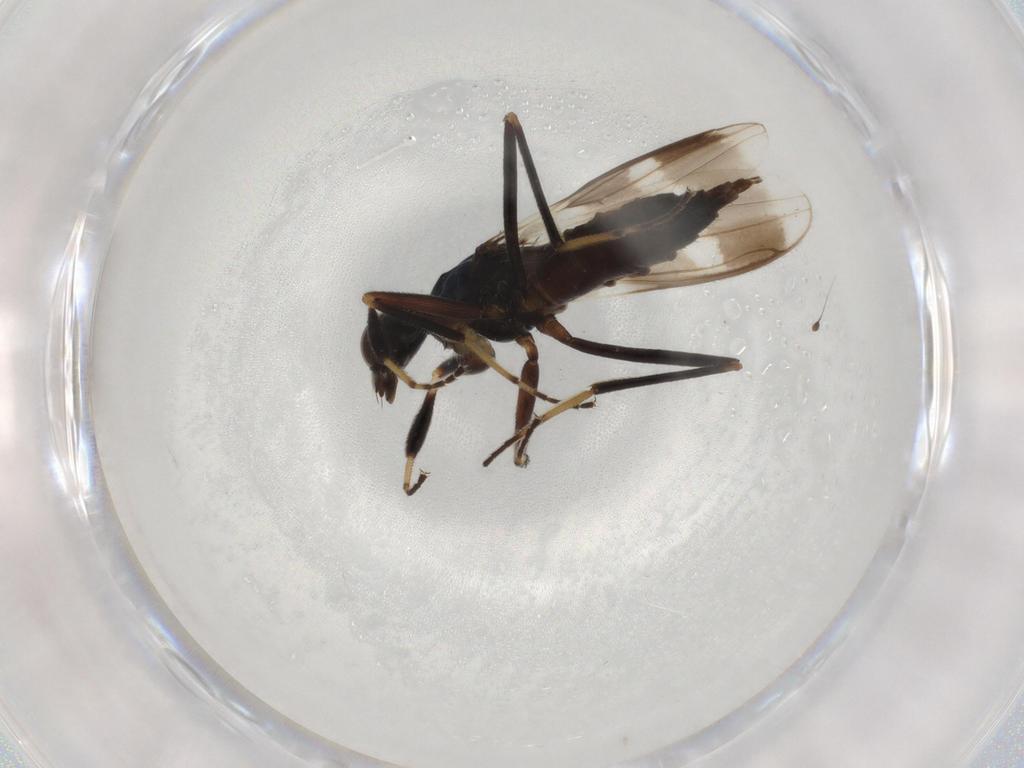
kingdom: Animalia
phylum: Arthropoda
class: Insecta
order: Diptera
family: Hybotidae
